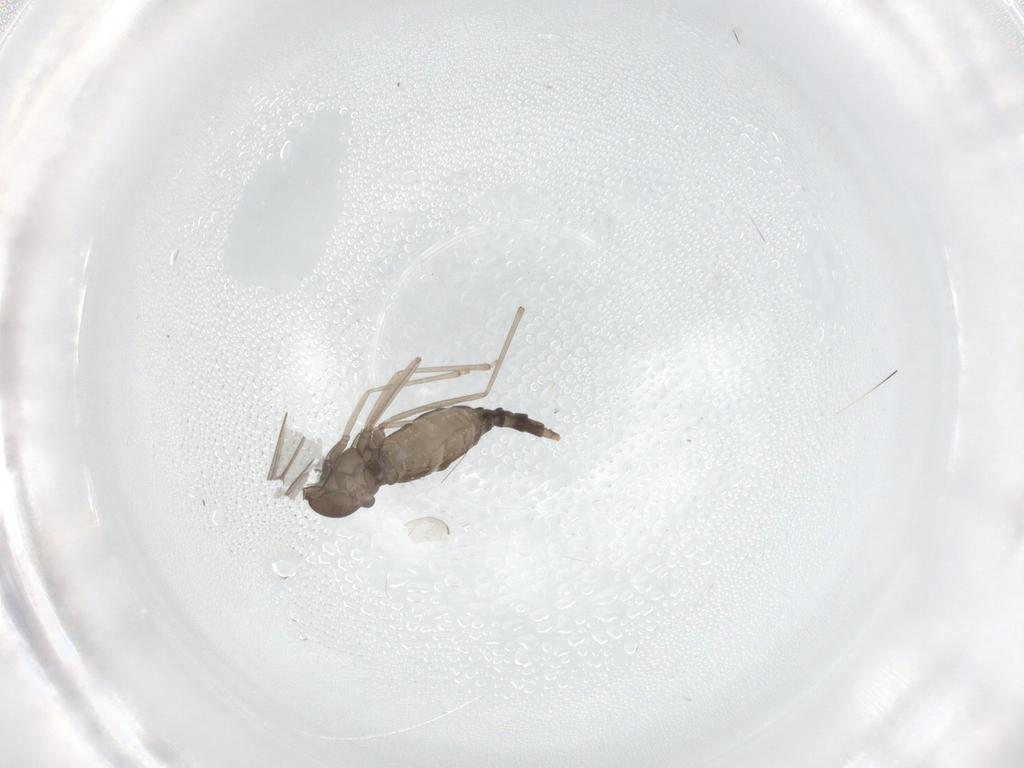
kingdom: Animalia
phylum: Arthropoda
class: Insecta
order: Diptera
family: Cecidomyiidae
